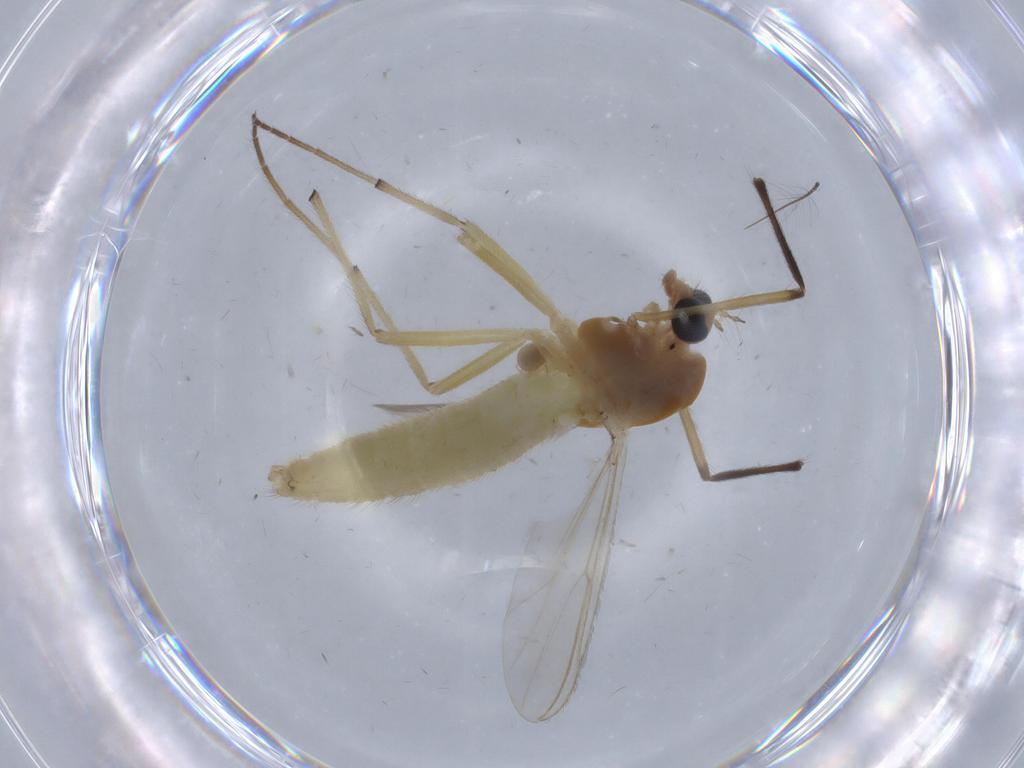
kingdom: Animalia
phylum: Arthropoda
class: Insecta
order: Diptera
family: Chironomidae
